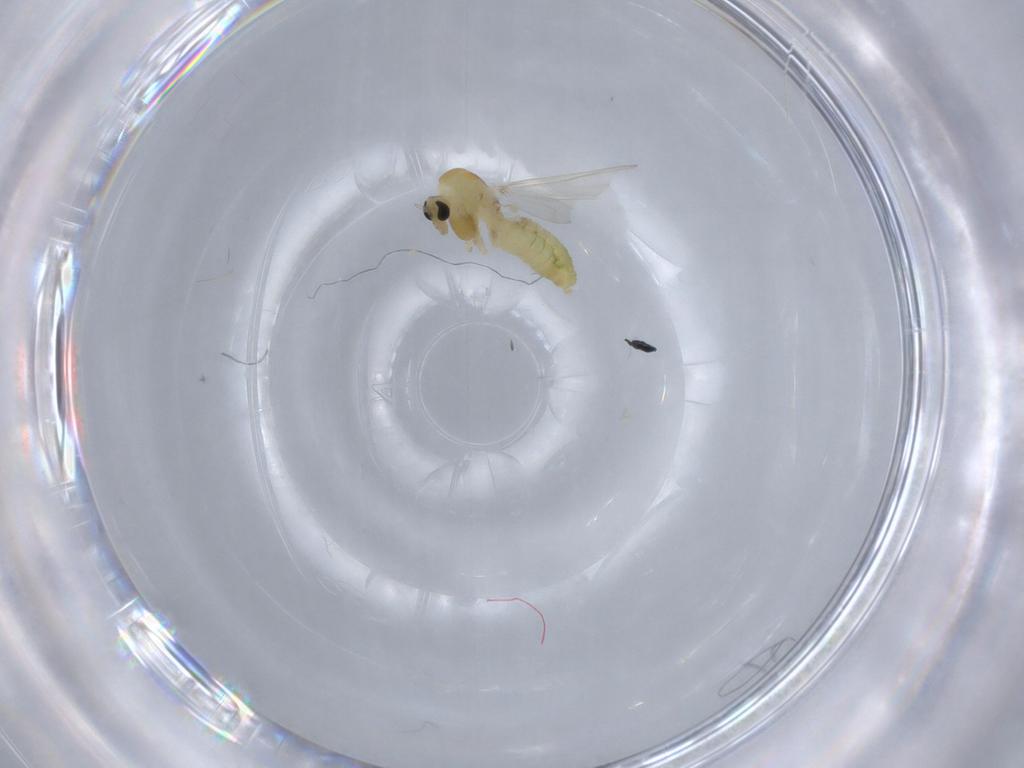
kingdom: Animalia
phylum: Arthropoda
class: Insecta
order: Diptera
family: Chironomidae
